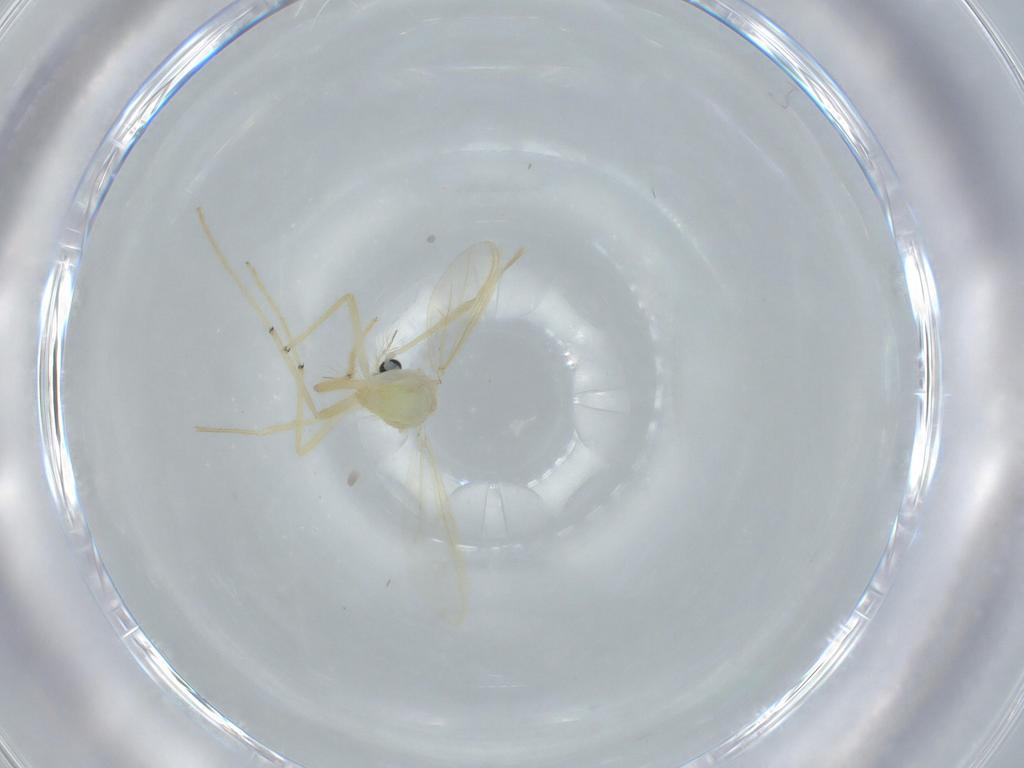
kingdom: Animalia
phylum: Arthropoda
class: Insecta
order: Diptera
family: Chironomidae
